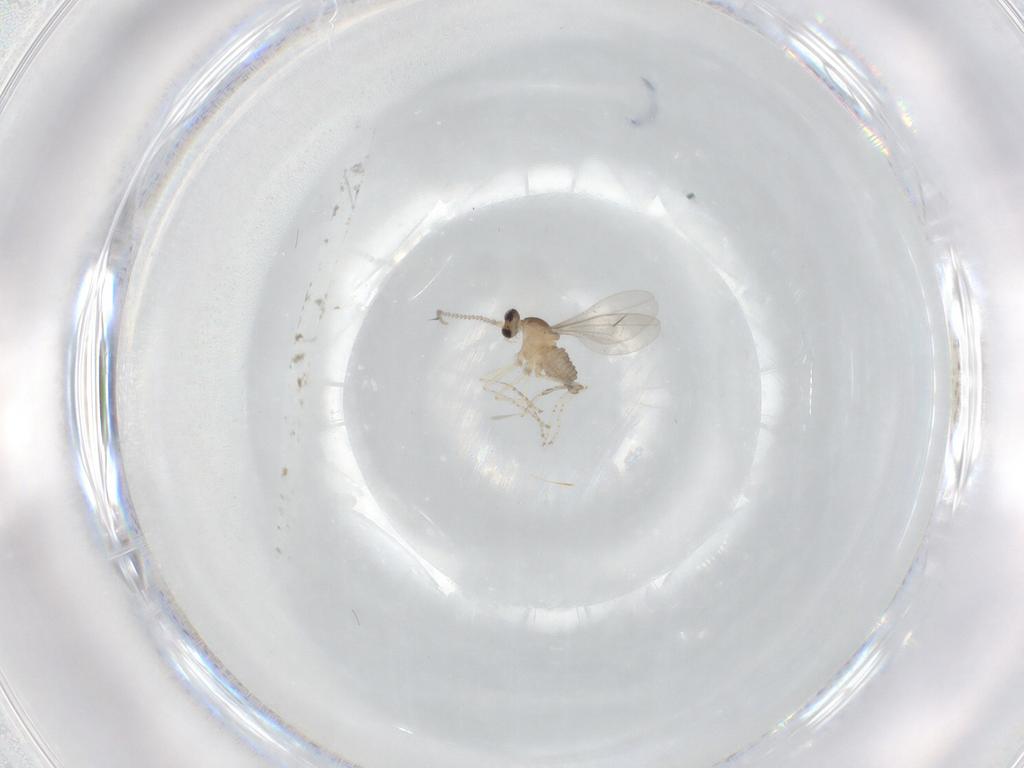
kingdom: Animalia
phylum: Arthropoda
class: Insecta
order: Diptera
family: Cecidomyiidae
